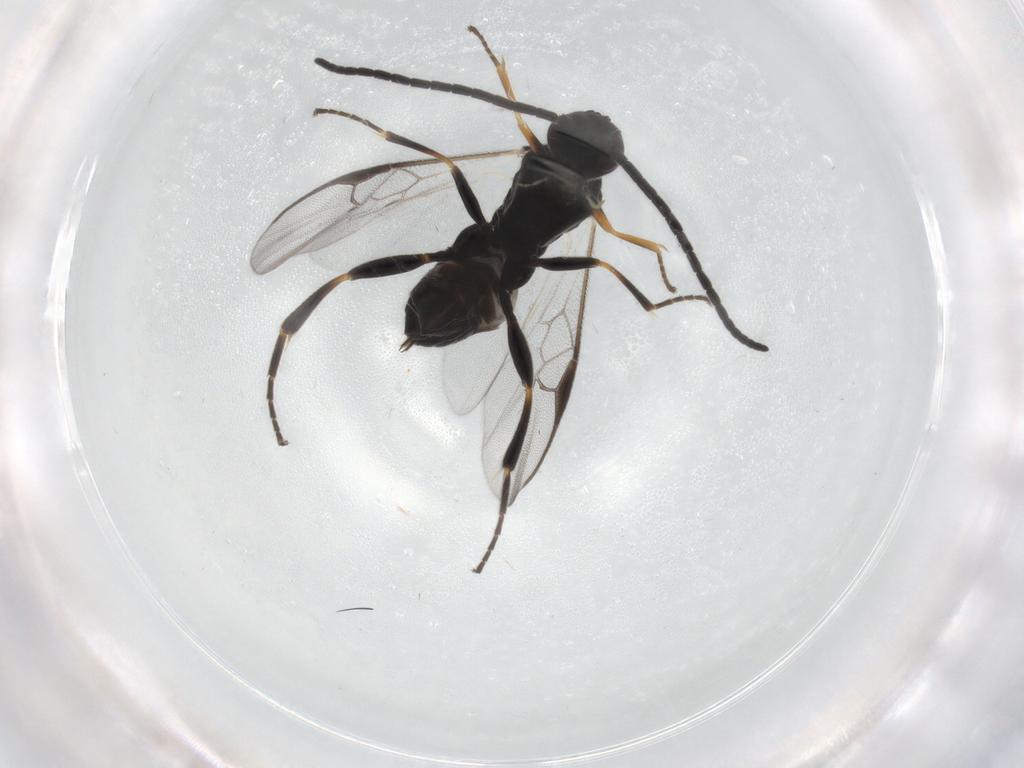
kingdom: Animalia
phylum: Arthropoda
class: Insecta
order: Hymenoptera
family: Braconidae
